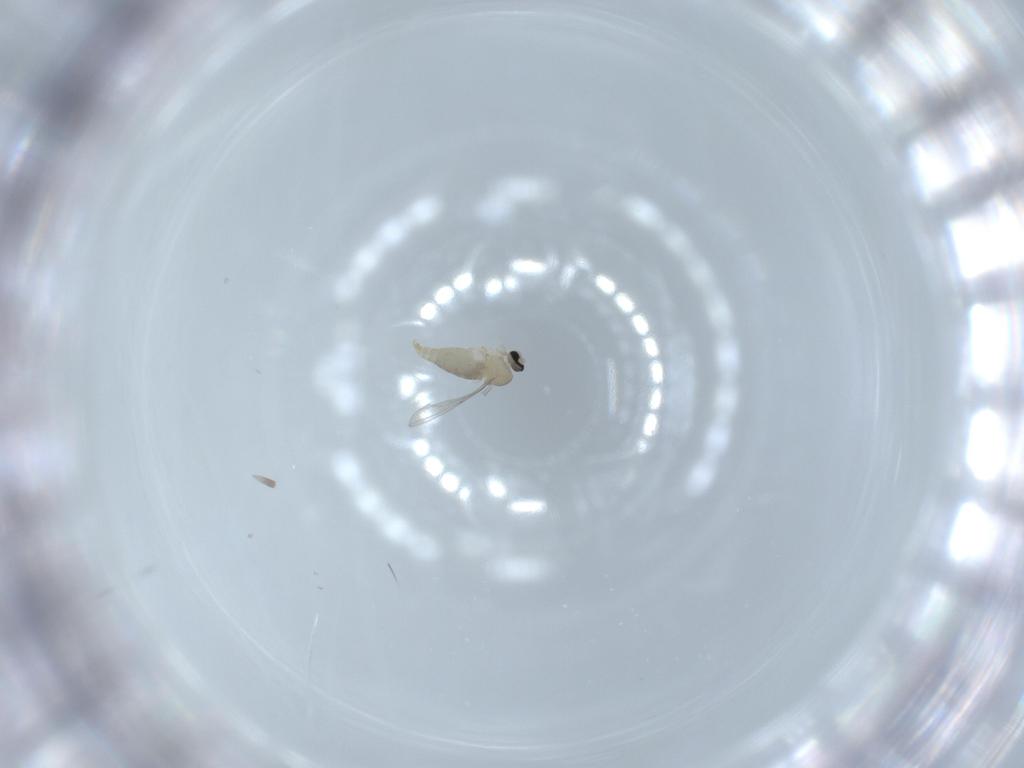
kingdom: Animalia
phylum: Arthropoda
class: Insecta
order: Diptera
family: Cecidomyiidae
